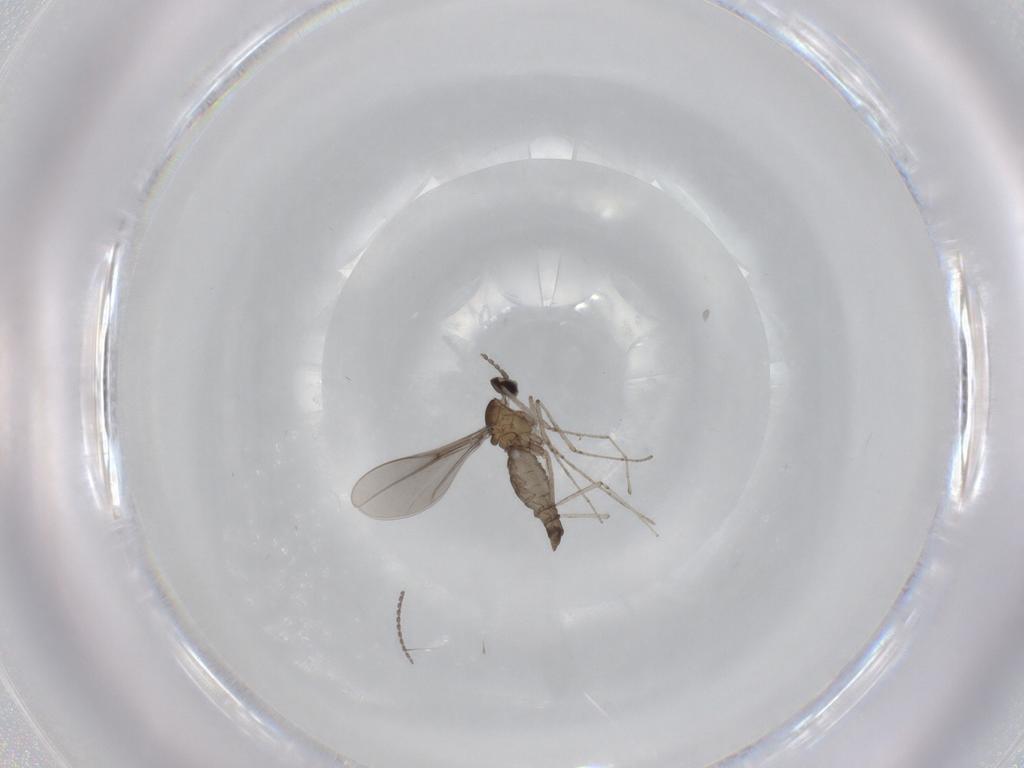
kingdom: Animalia
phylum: Arthropoda
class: Insecta
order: Diptera
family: Cecidomyiidae
